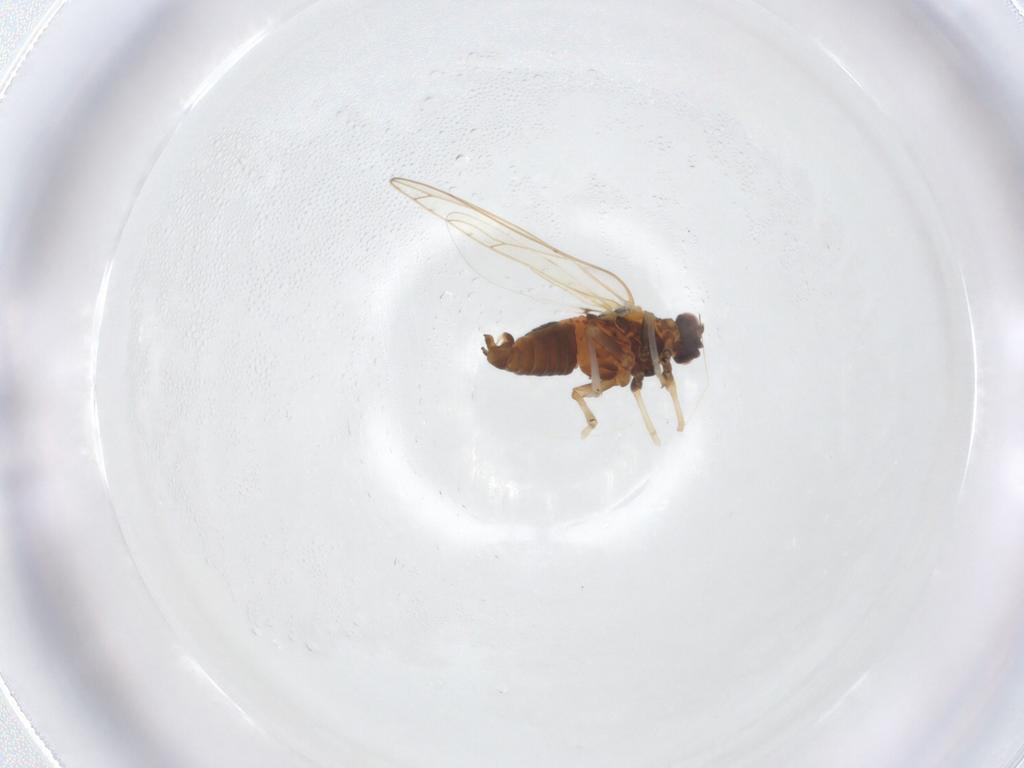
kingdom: Animalia
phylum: Arthropoda
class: Insecta
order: Hemiptera
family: Triozidae
